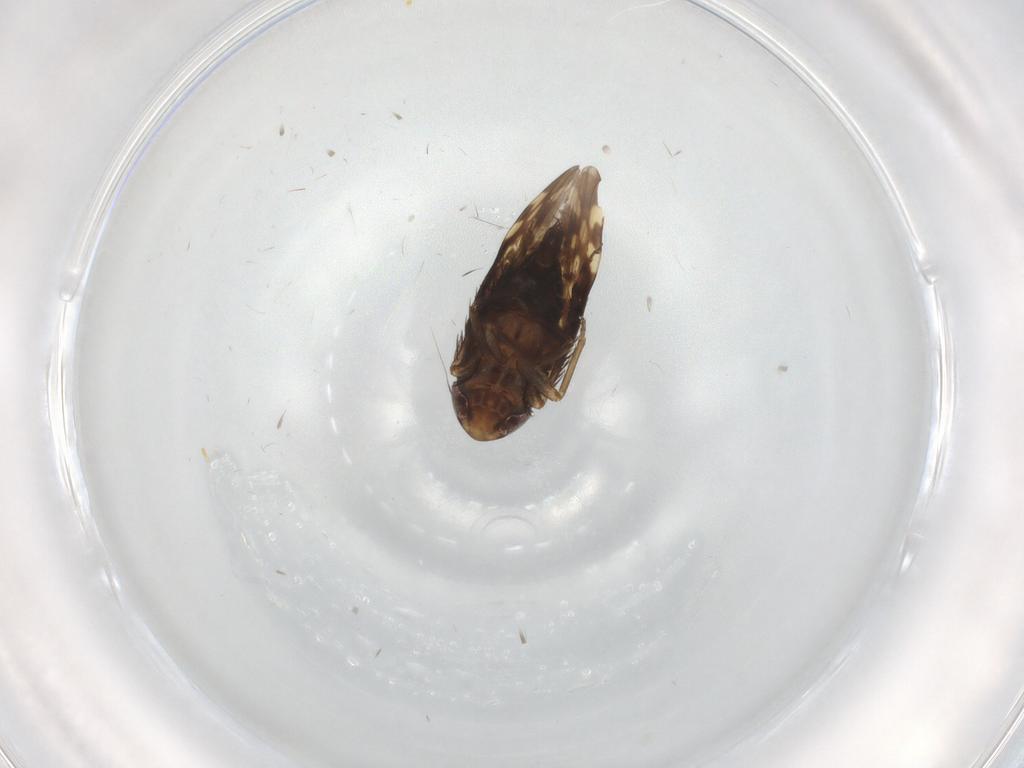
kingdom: Animalia
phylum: Arthropoda
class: Insecta
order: Hemiptera
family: Cicadellidae
